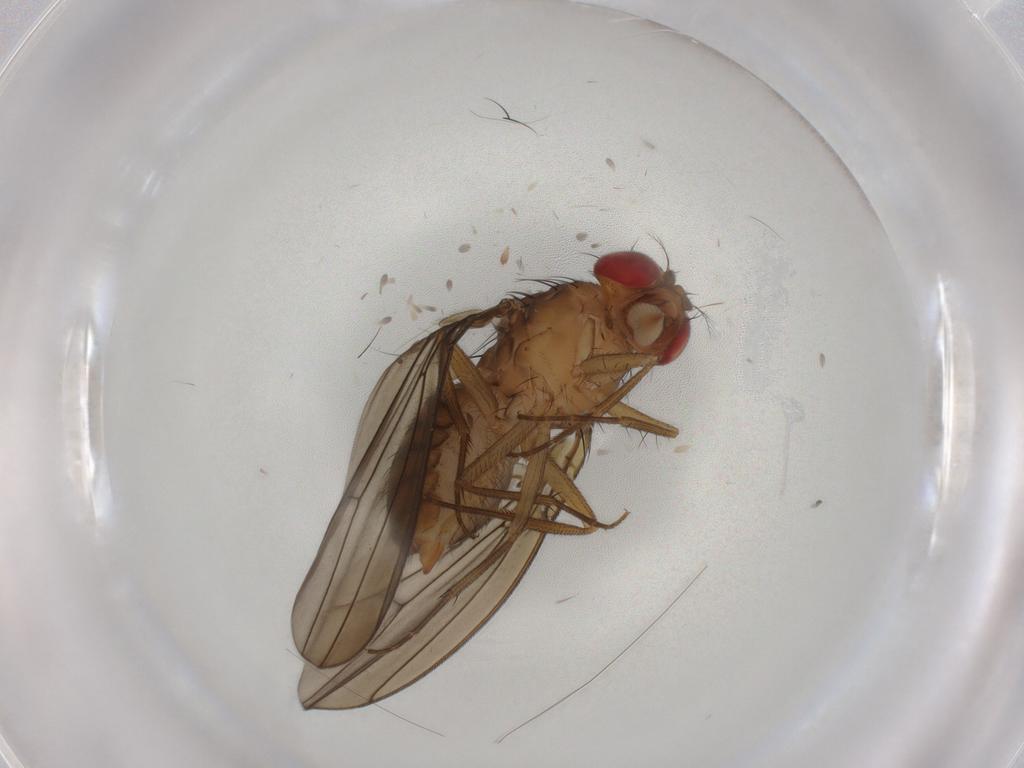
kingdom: Animalia
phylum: Arthropoda
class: Insecta
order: Diptera
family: Drosophilidae
